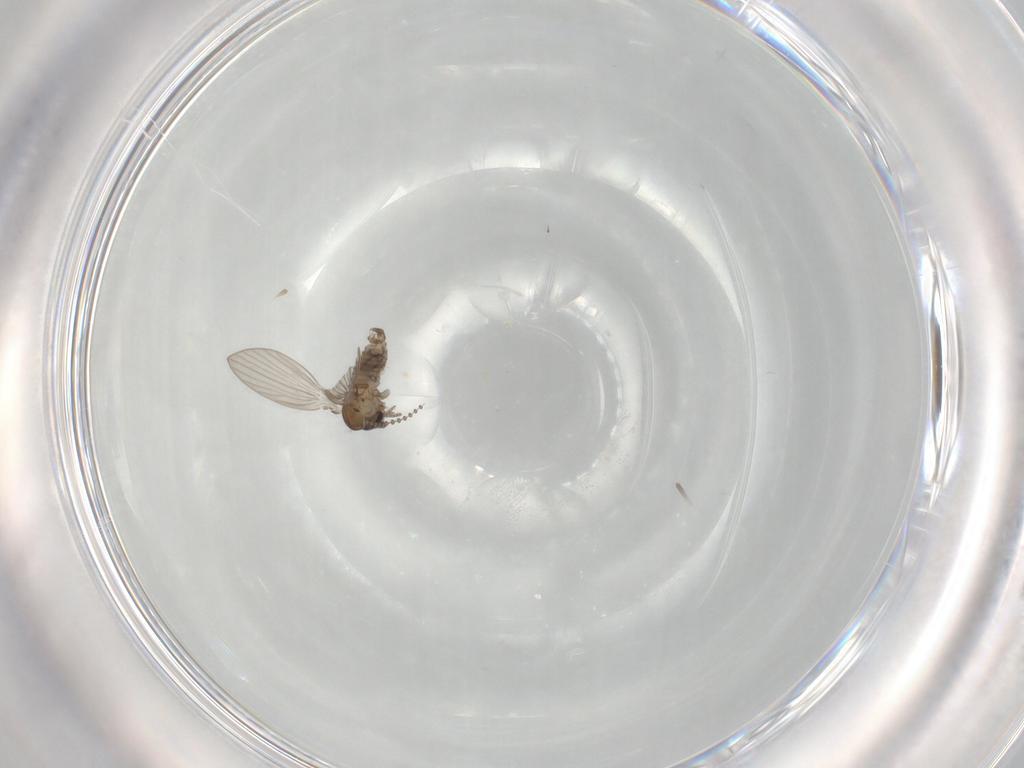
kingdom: Animalia
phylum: Arthropoda
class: Insecta
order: Diptera
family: Psychodidae
